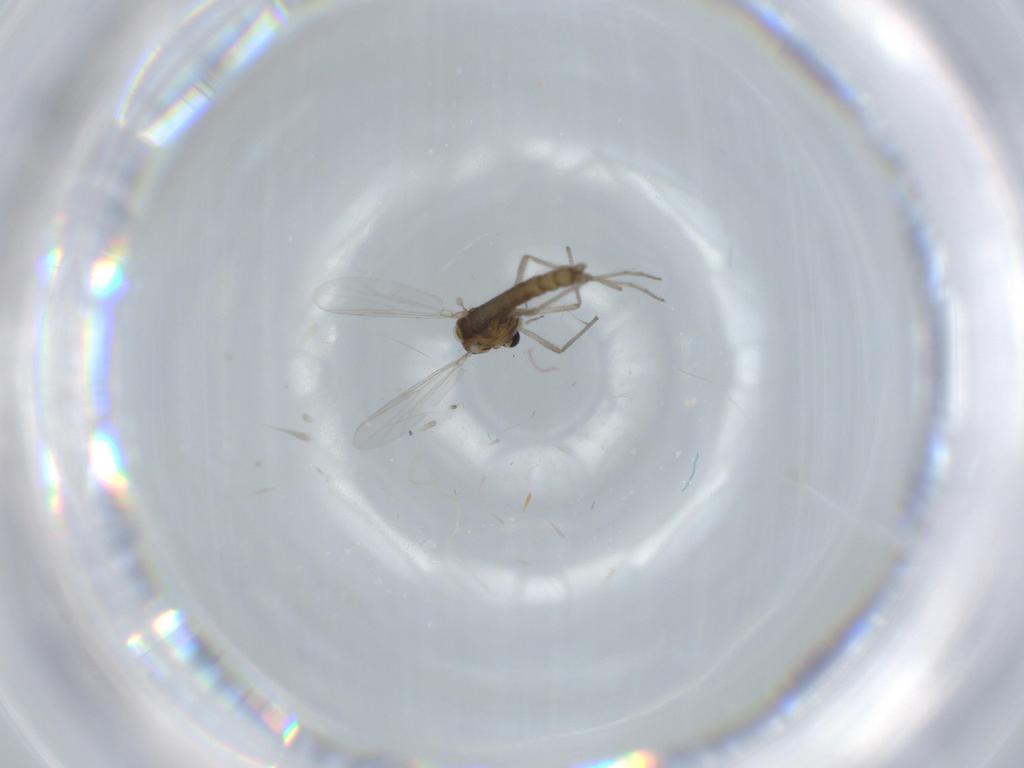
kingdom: Animalia
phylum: Arthropoda
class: Insecta
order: Diptera
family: Chironomidae
